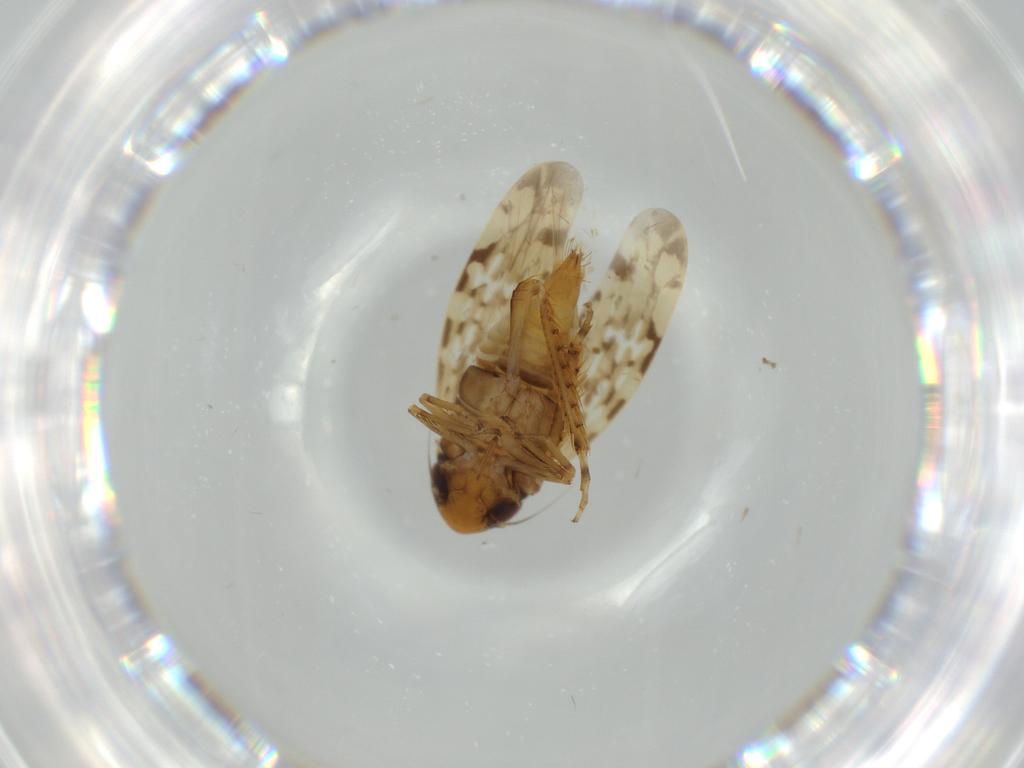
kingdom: Animalia
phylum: Arthropoda
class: Insecta
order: Hemiptera
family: Cicadellidae
